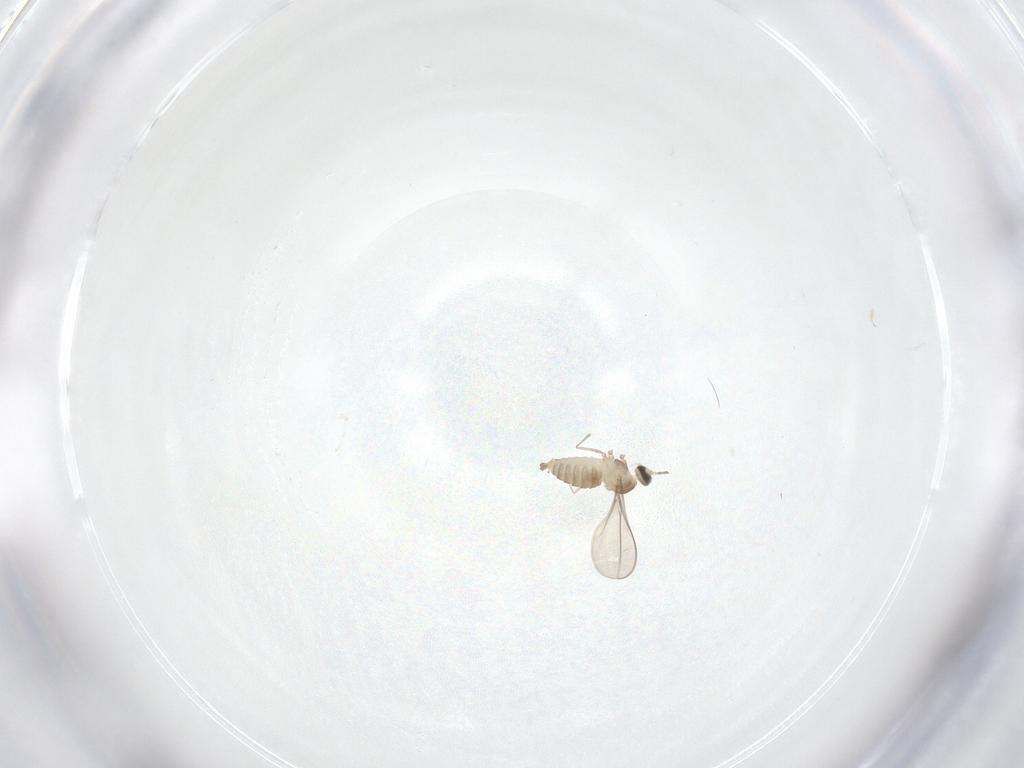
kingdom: Animalia
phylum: Arthropoda
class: Insecta
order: Diptera
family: Cecidomyiidae
